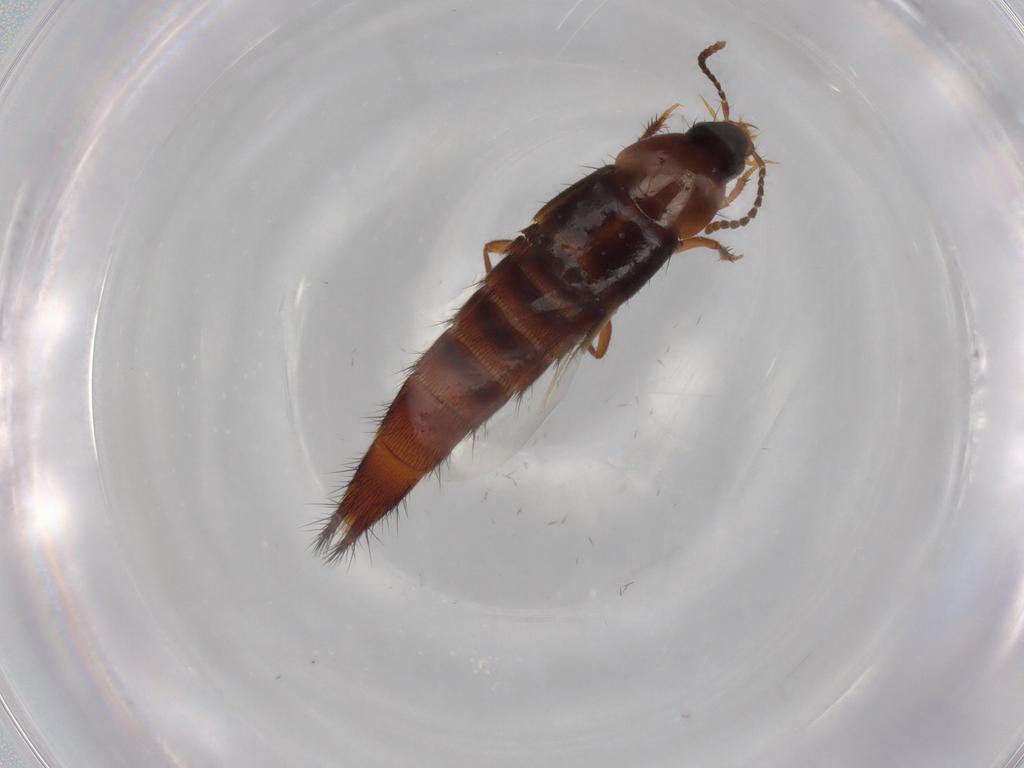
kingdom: Animalia
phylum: Arthropoda
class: Insecta
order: Coleoptera
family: Staphylinidae
